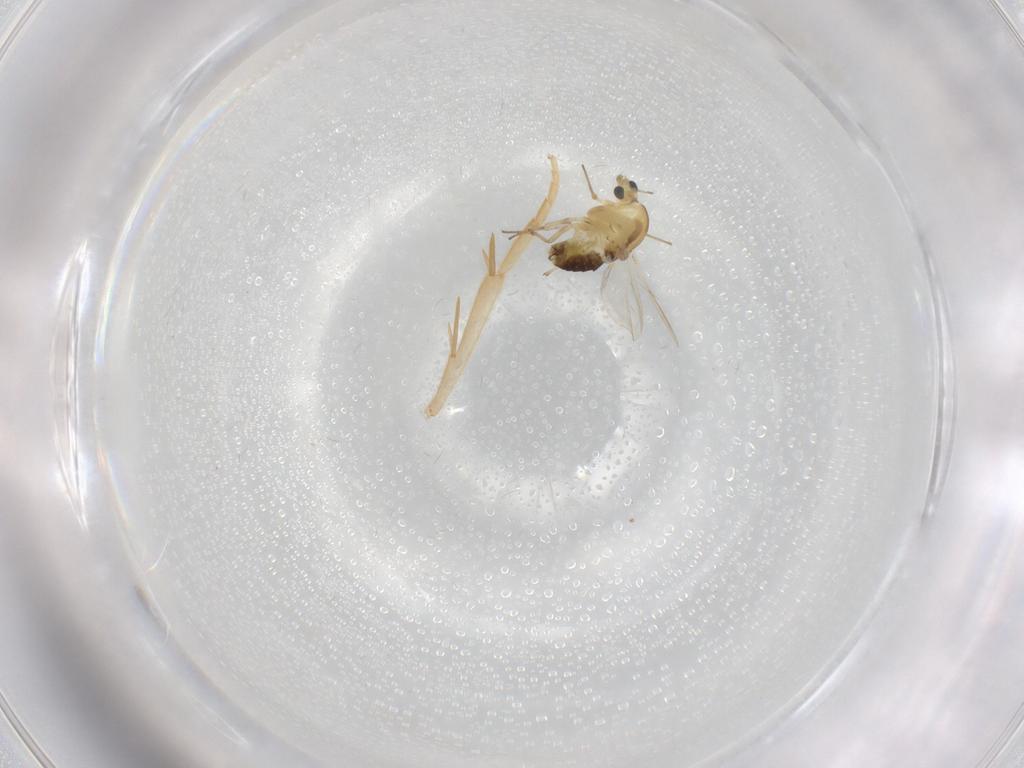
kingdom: Animalia
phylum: Arthropoda
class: Insecta
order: Diptera
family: Chironomidae
